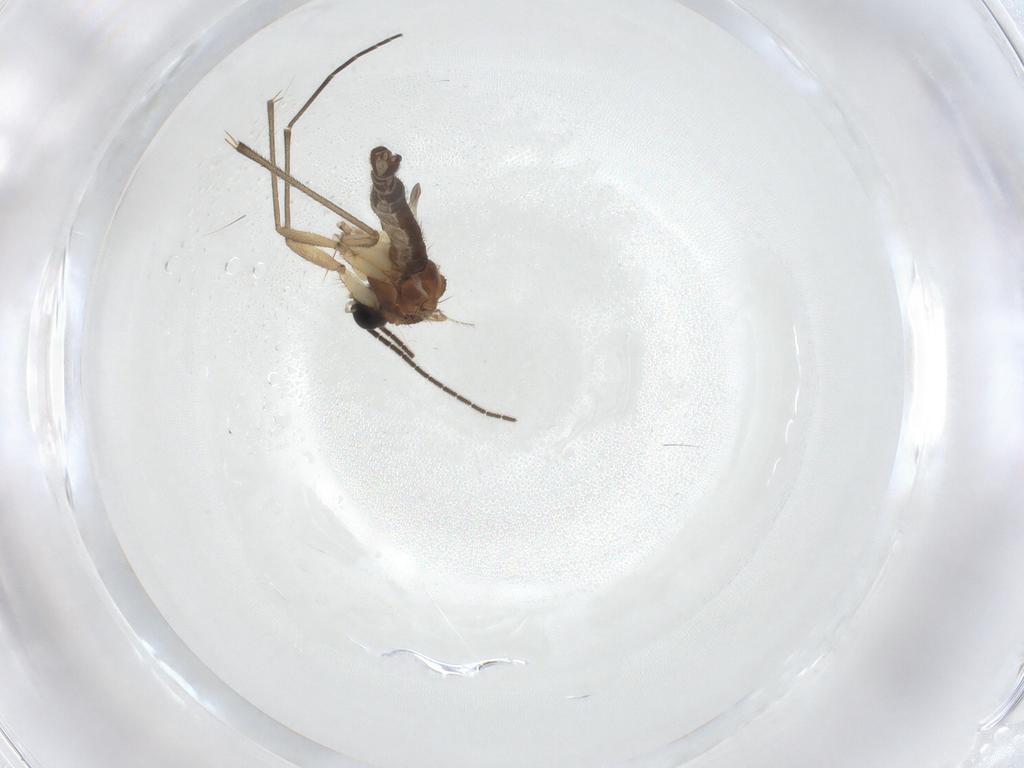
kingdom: Animalia
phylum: Arthropoda
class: Insecta
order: Diptera
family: Sciaridae
